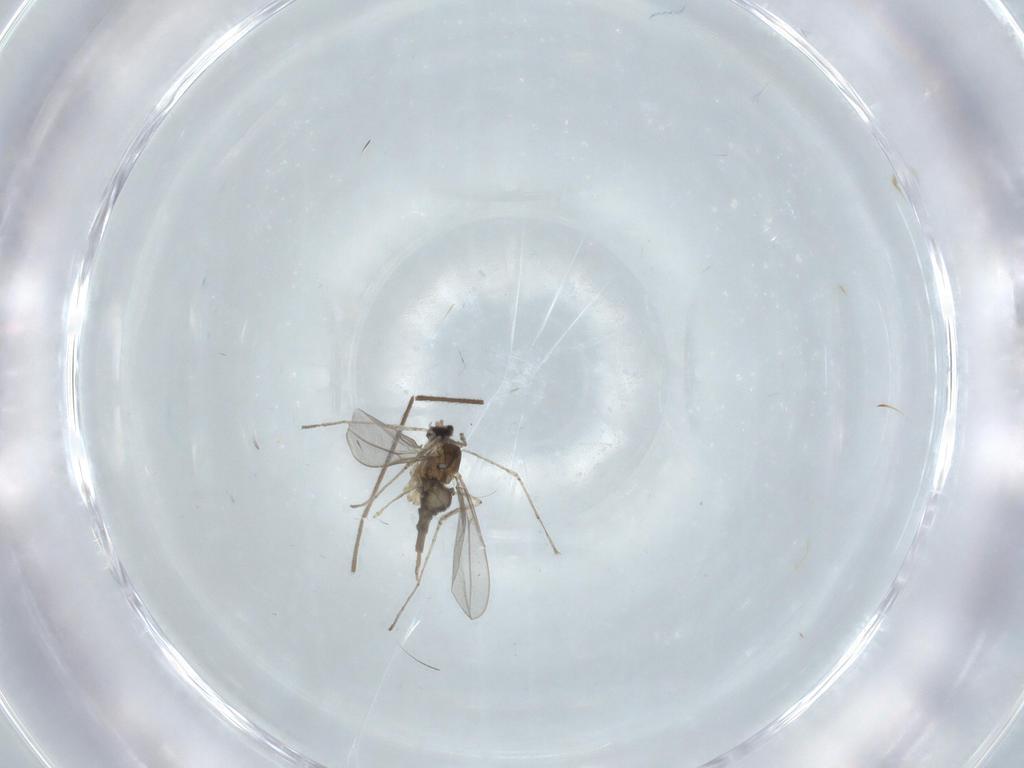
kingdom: Animalia
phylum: Arthropoda
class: Insecta
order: Diptera
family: Cecidomyiidae
